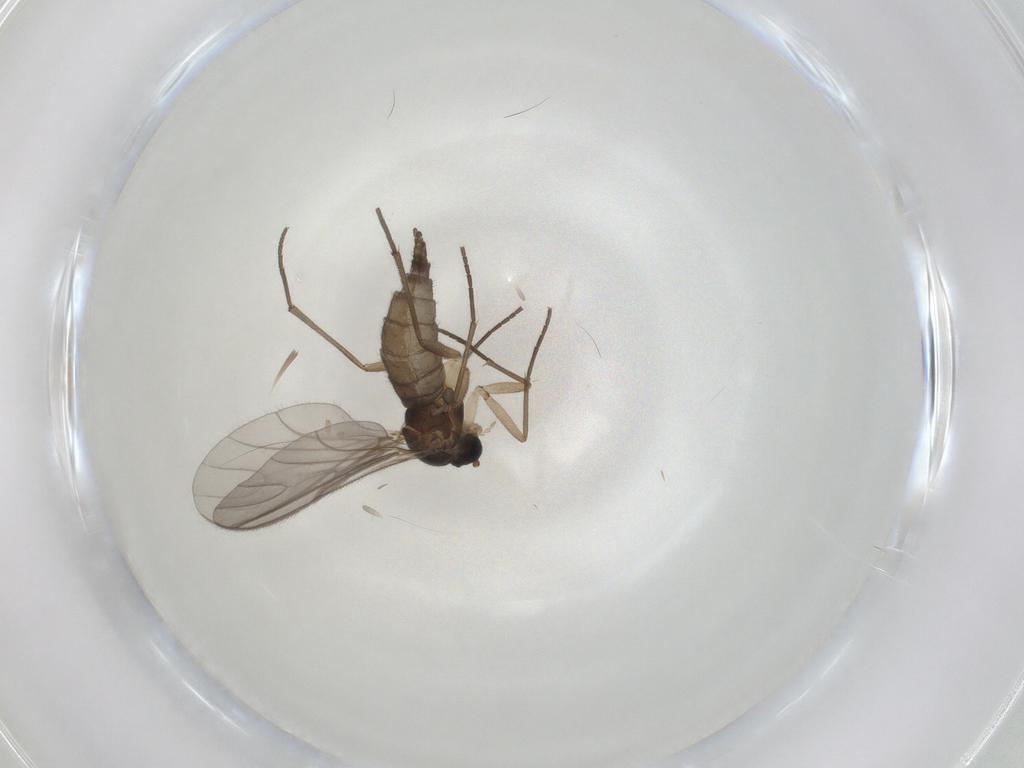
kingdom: Animalia
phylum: Arthropoda
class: Insecta
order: Diptera
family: Sciaridae
